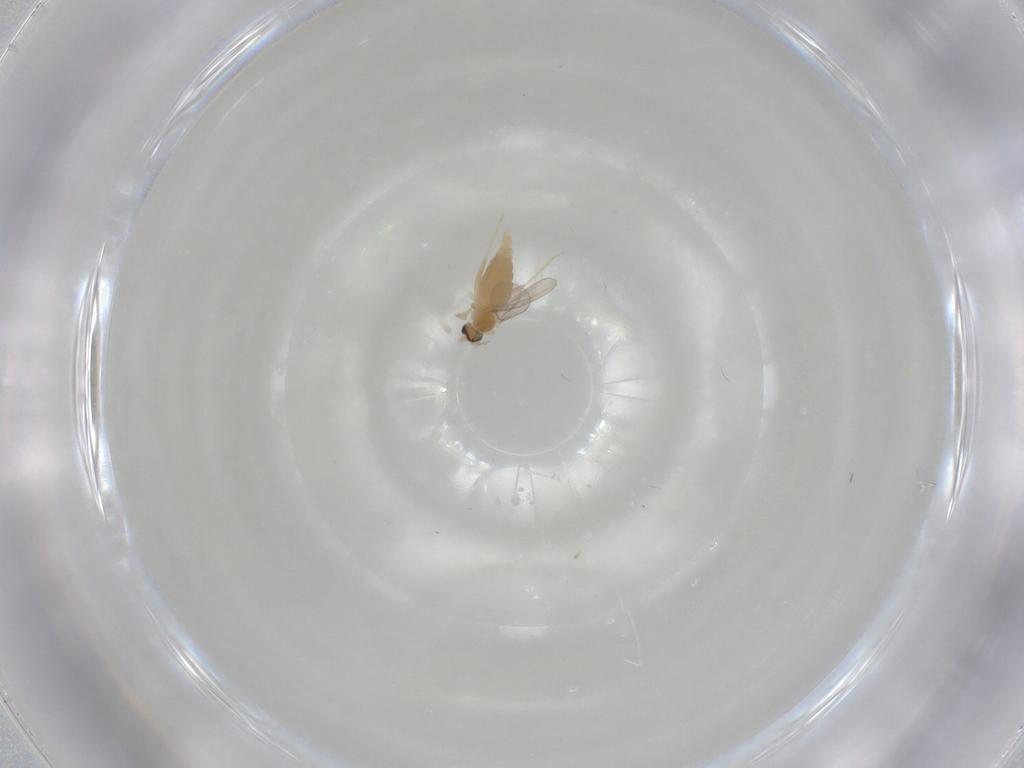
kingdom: Animalia
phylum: Arthropoda
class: Insecta
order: Diptera
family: Cecidomyiidae
